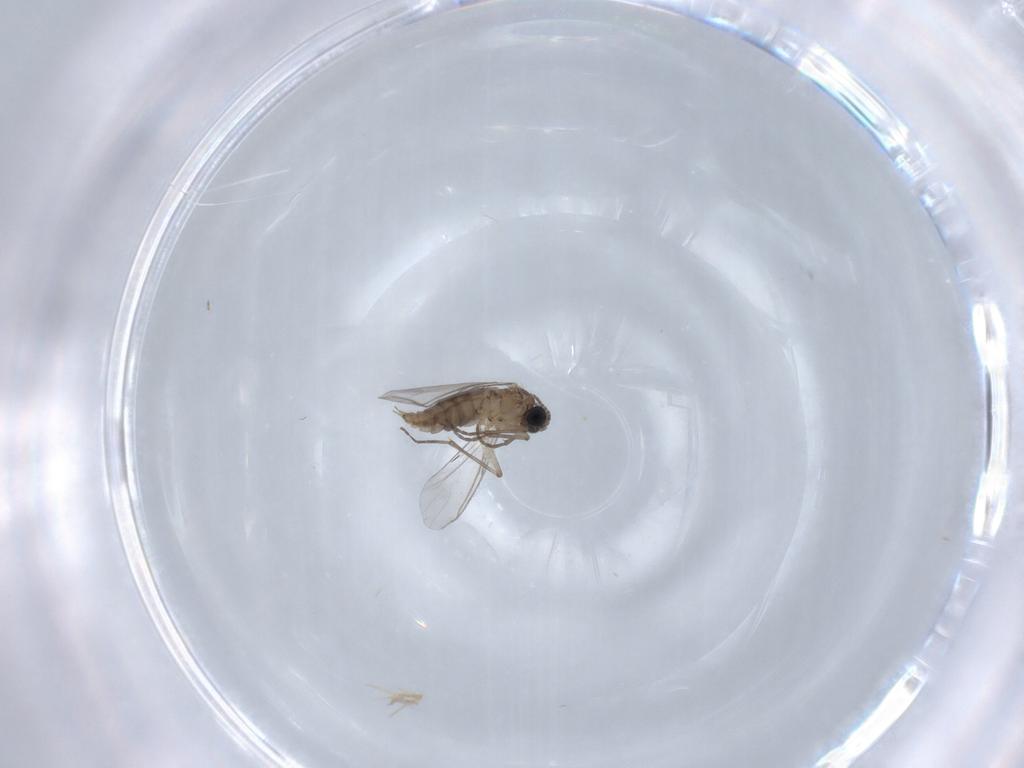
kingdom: Animalia
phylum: Arthropoda
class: Insecta
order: Diptera
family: Sciaridae
